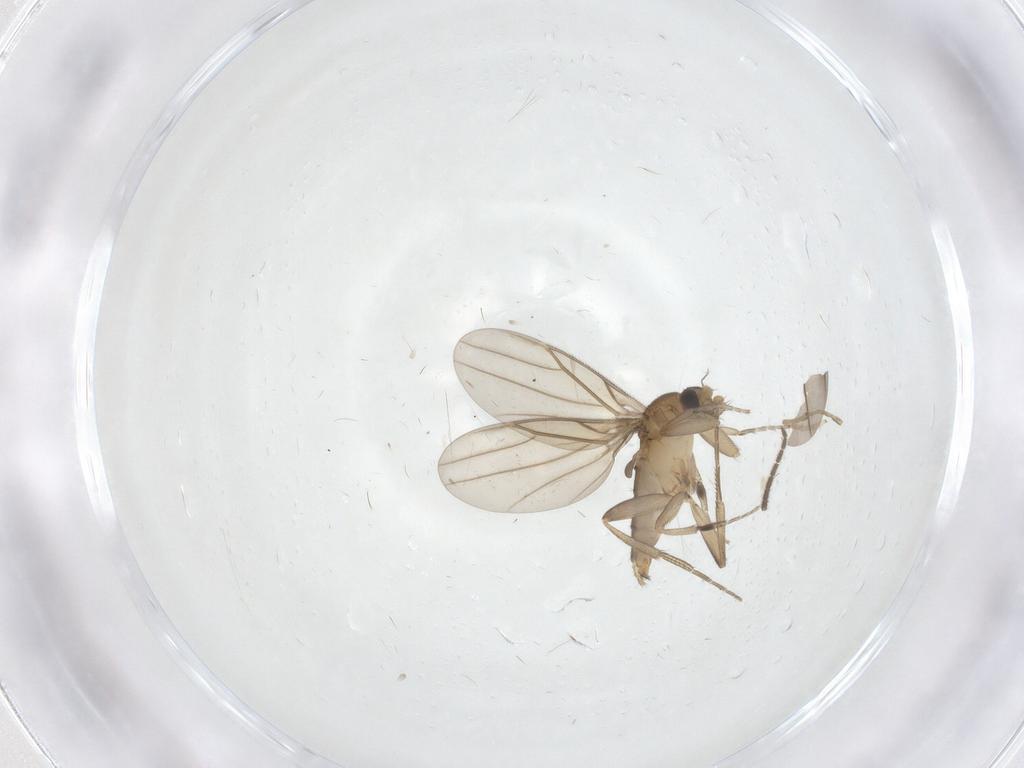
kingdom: Animalia
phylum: Arthropoda
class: Insecta
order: Diptera
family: Sciaridae
